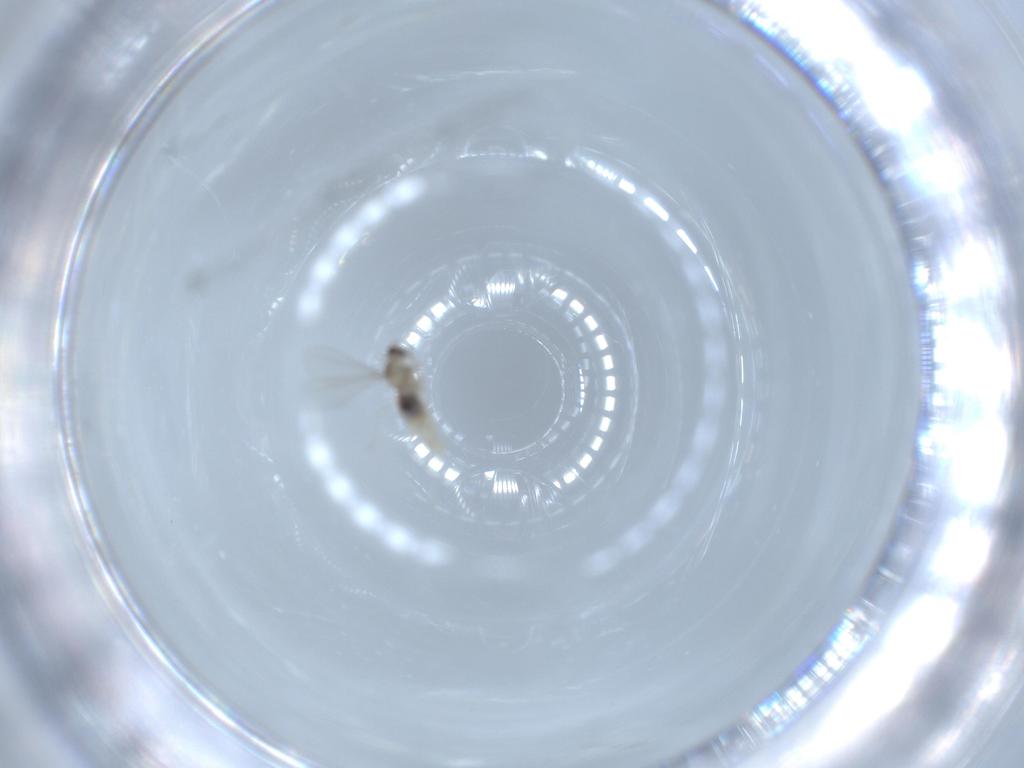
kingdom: Animalia
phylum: Arthropoda
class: Insecta
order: Diptera
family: Cecidomyiidae
